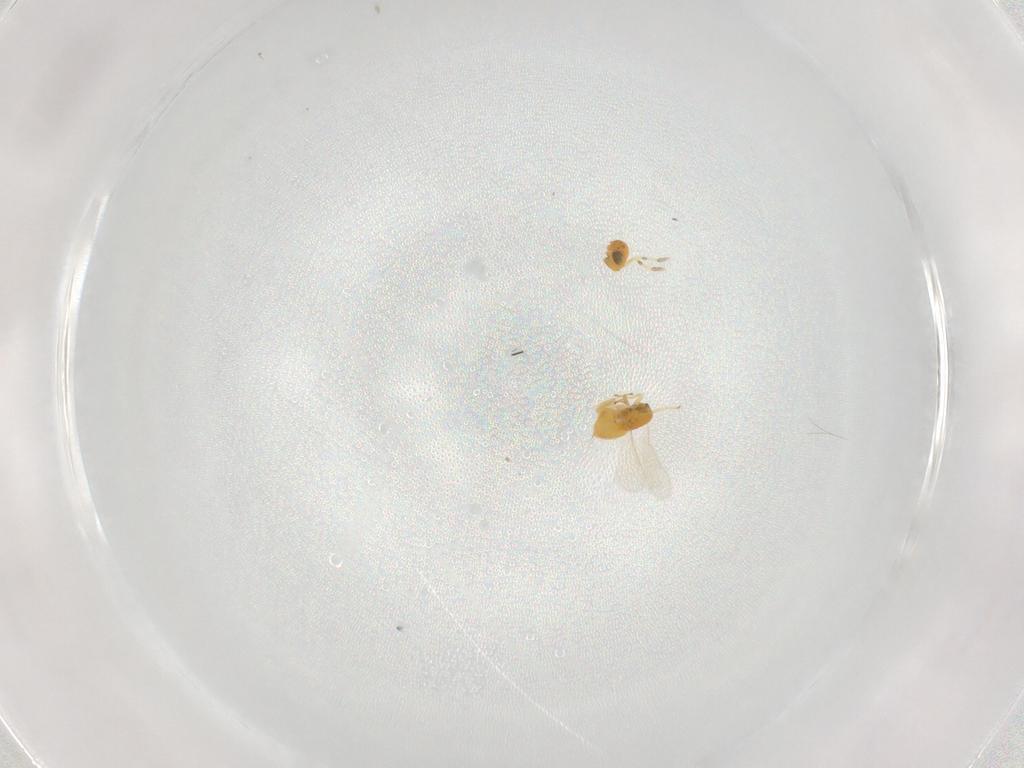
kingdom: Animalia
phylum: Arthropoda
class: Insecta
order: Hymenoptera
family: Aphelinidae
